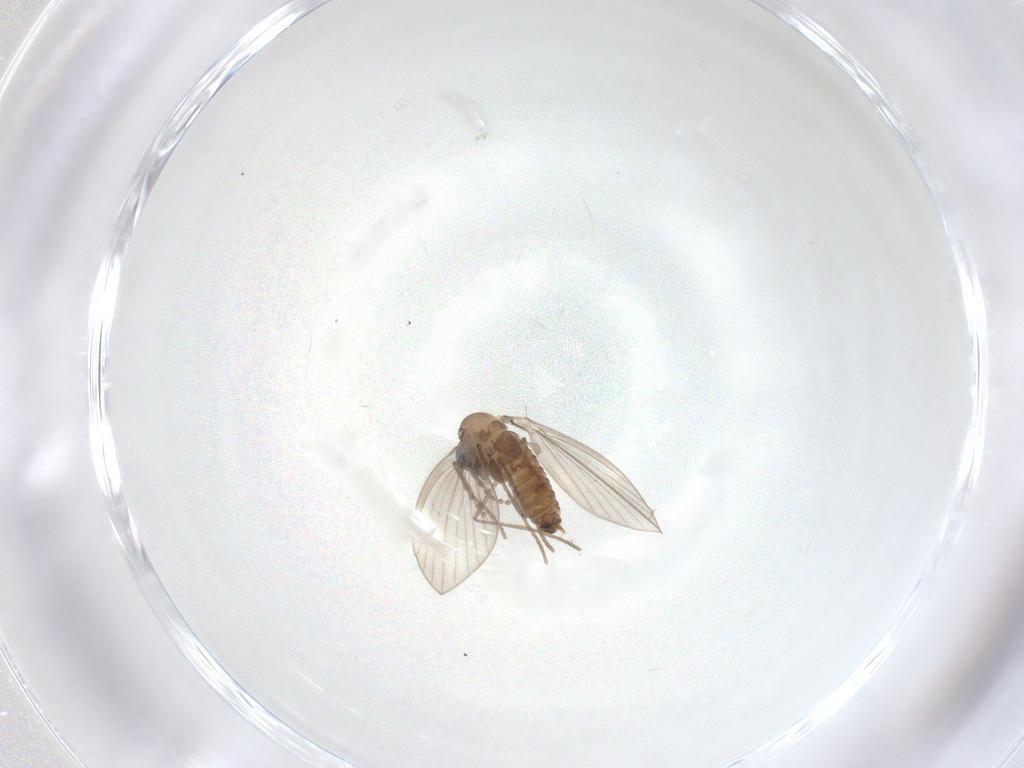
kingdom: Animalia
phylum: Arthropoda
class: Insecta
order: Diptera
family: Psychodidae
